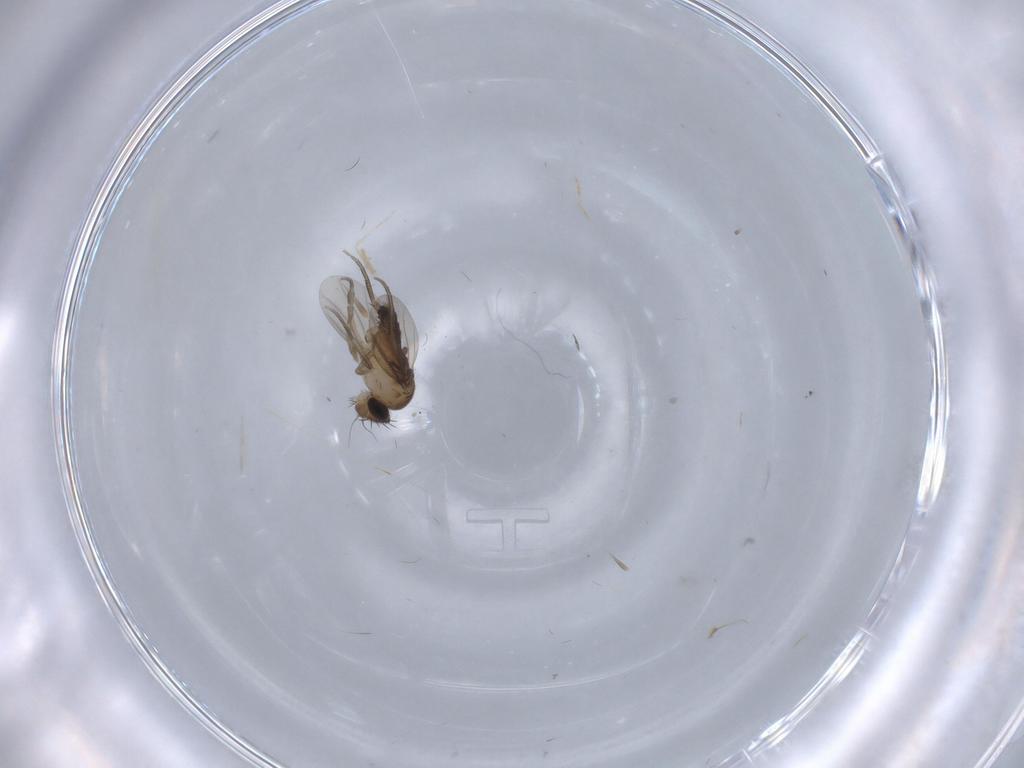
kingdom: Animalia
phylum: Arthropoda
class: Insecta
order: Diptera
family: Phoridae
